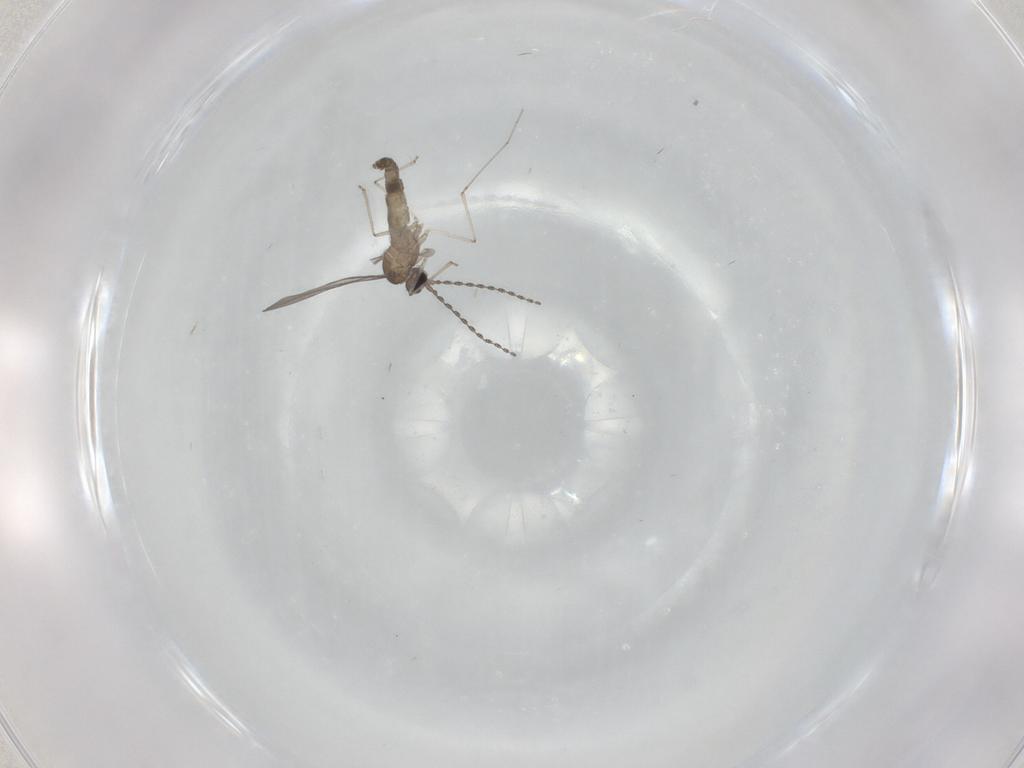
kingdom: Animalia
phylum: Arthropoda
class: Insecta
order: Diptera
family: Cecidomyiidae
